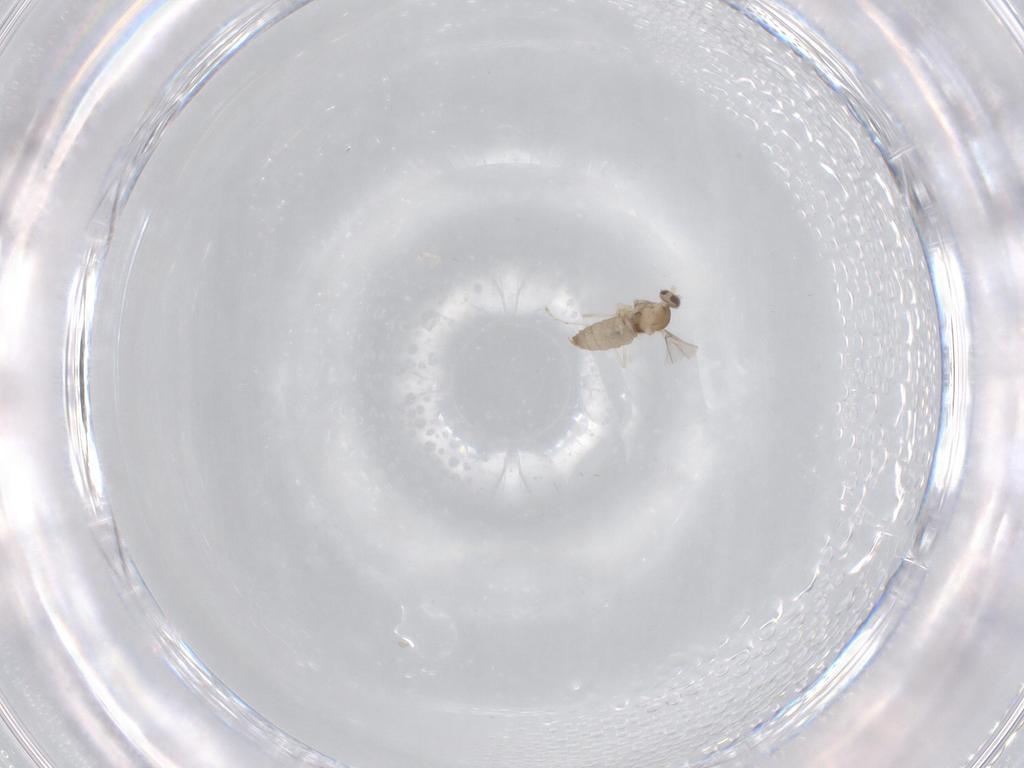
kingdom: Animalia
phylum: Arthropoda
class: Insecta
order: Diptera
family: Cecidomyiidae
